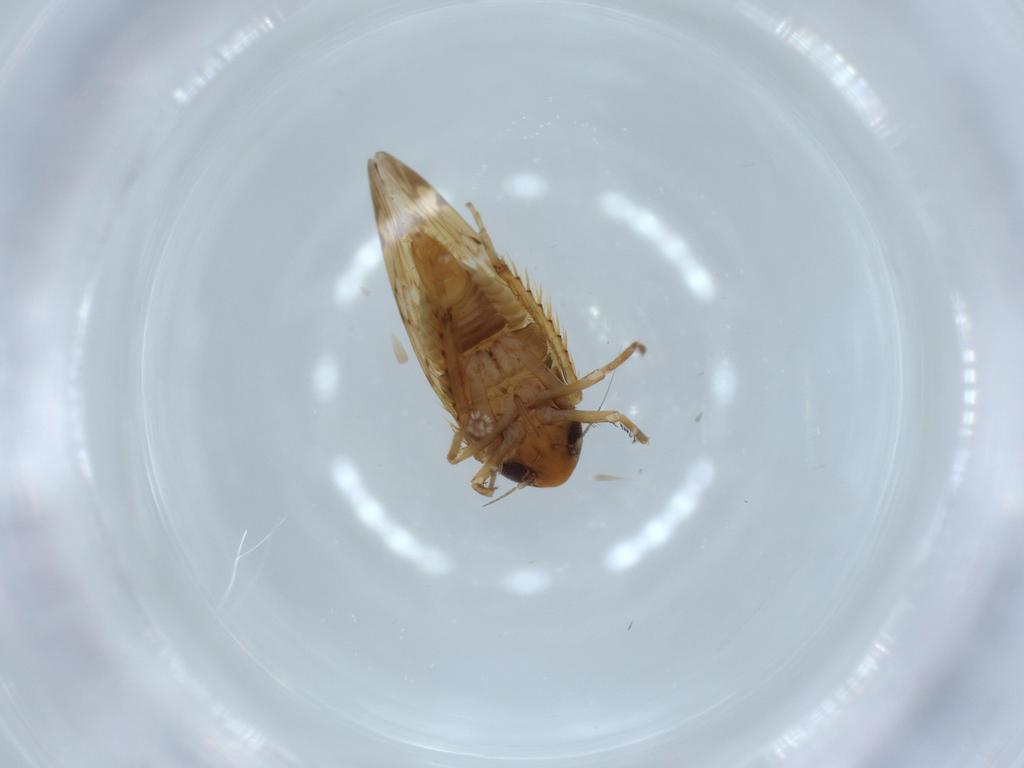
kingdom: Animalia
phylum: Arthropoda
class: Insecta
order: Hemiptera
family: Cicadellidae
